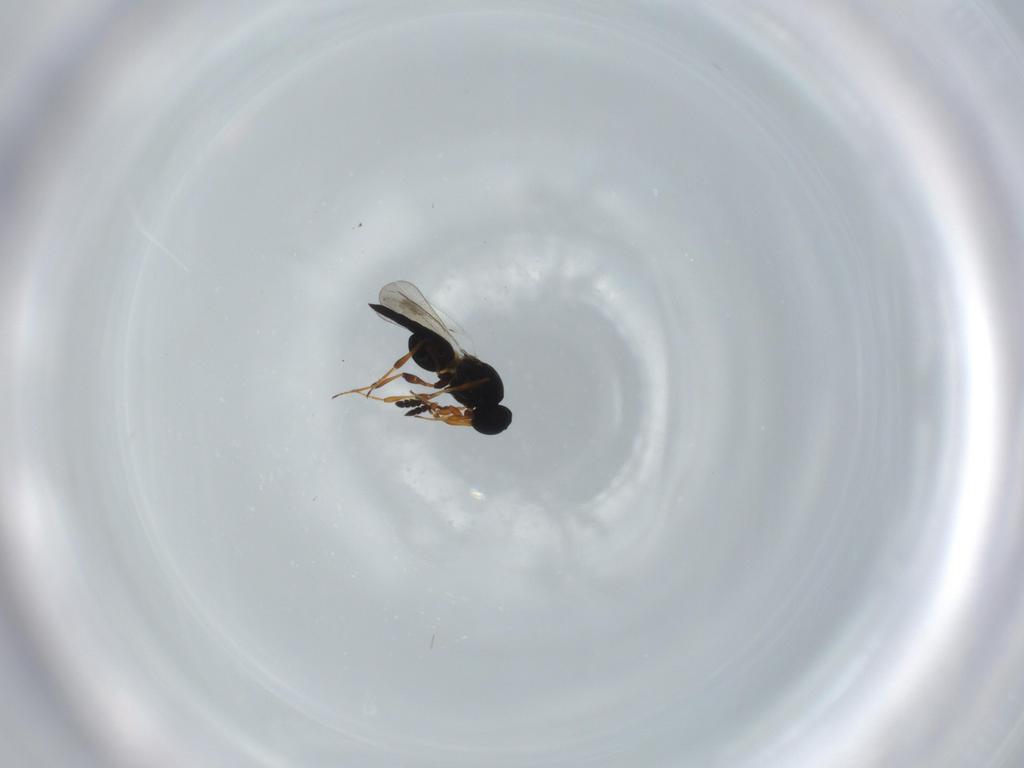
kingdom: Animalia
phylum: Arthropoda
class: Insecta
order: Hymenoptera
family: Platygastridae
